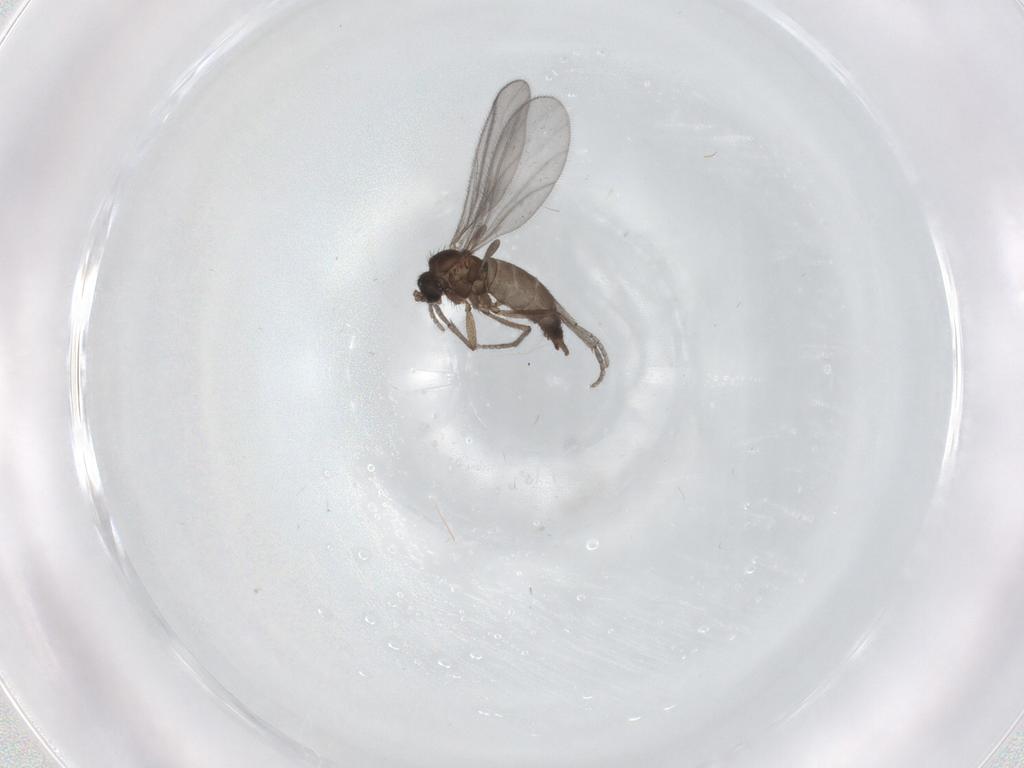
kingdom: Animalia
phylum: Arthropoda
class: Insecta
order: Diptera
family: Sciaridae
